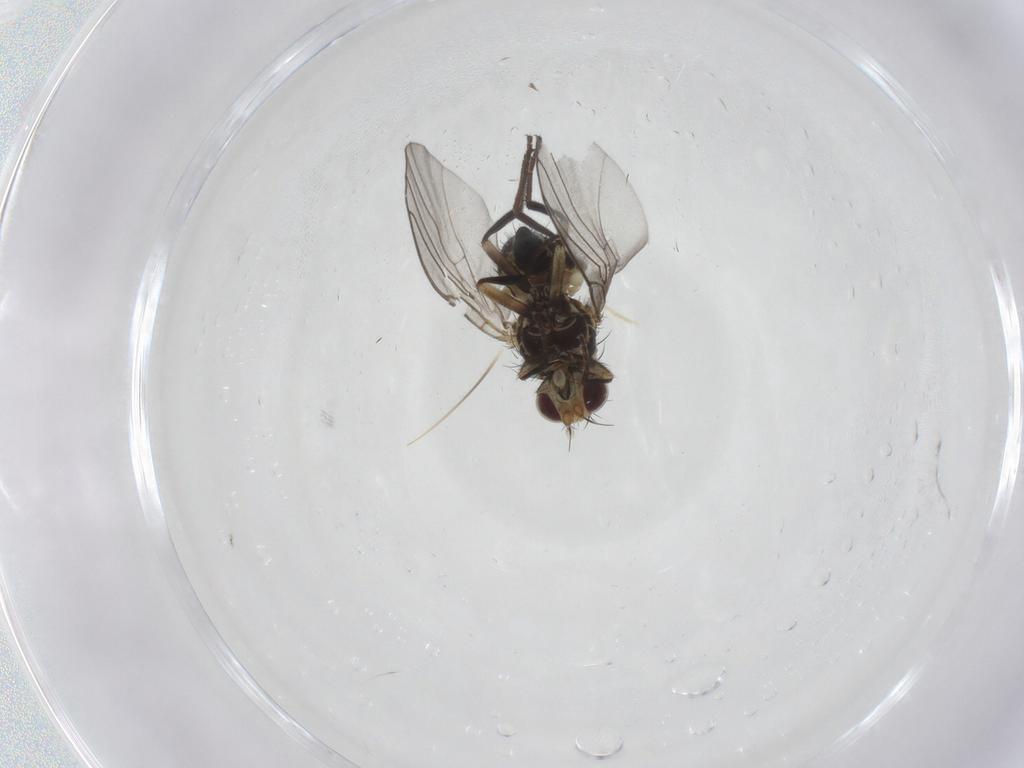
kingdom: Animalia
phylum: Arthropoda
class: Insecta
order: Diptera
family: Agromyzidae
